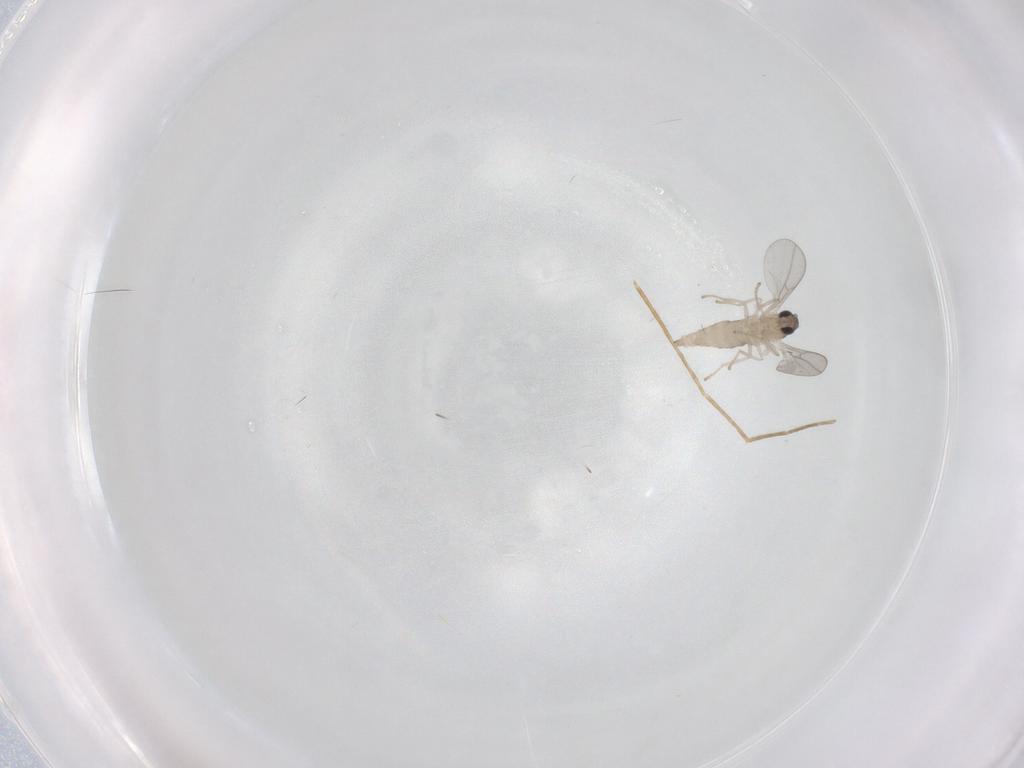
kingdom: Animalia
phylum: Arthropoda
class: Insecta
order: Diptera
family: Cecidomyiidae
